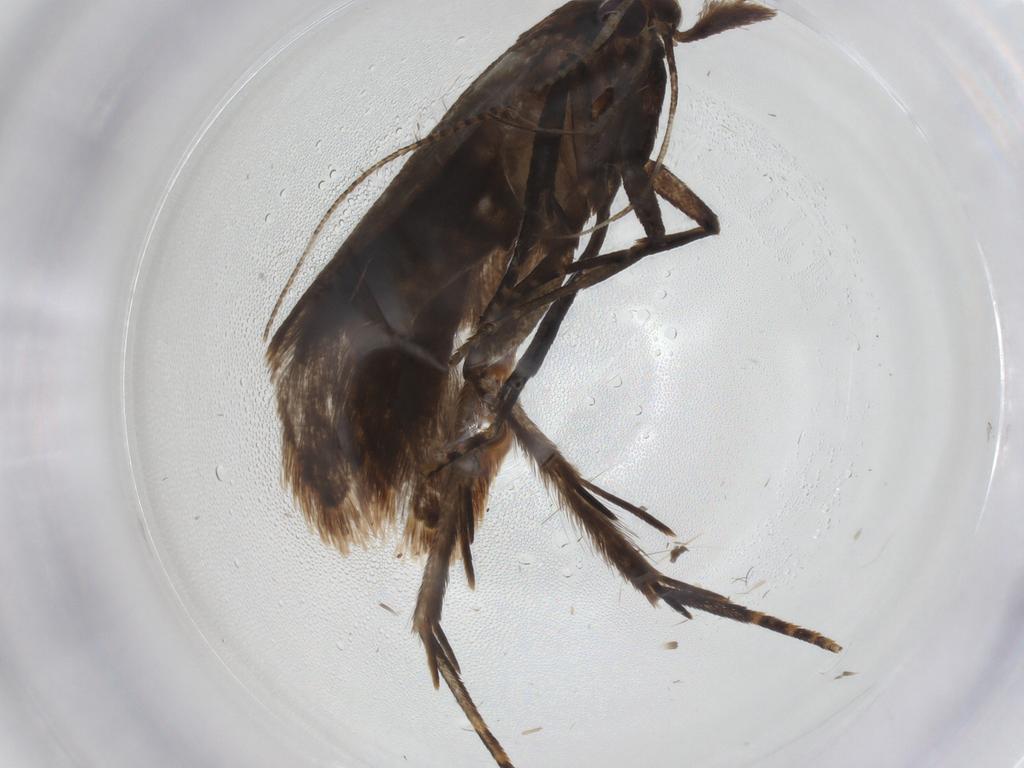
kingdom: Animalia
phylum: Arthropoda
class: Insecta
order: Lepidoptera
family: Gelechiidae
